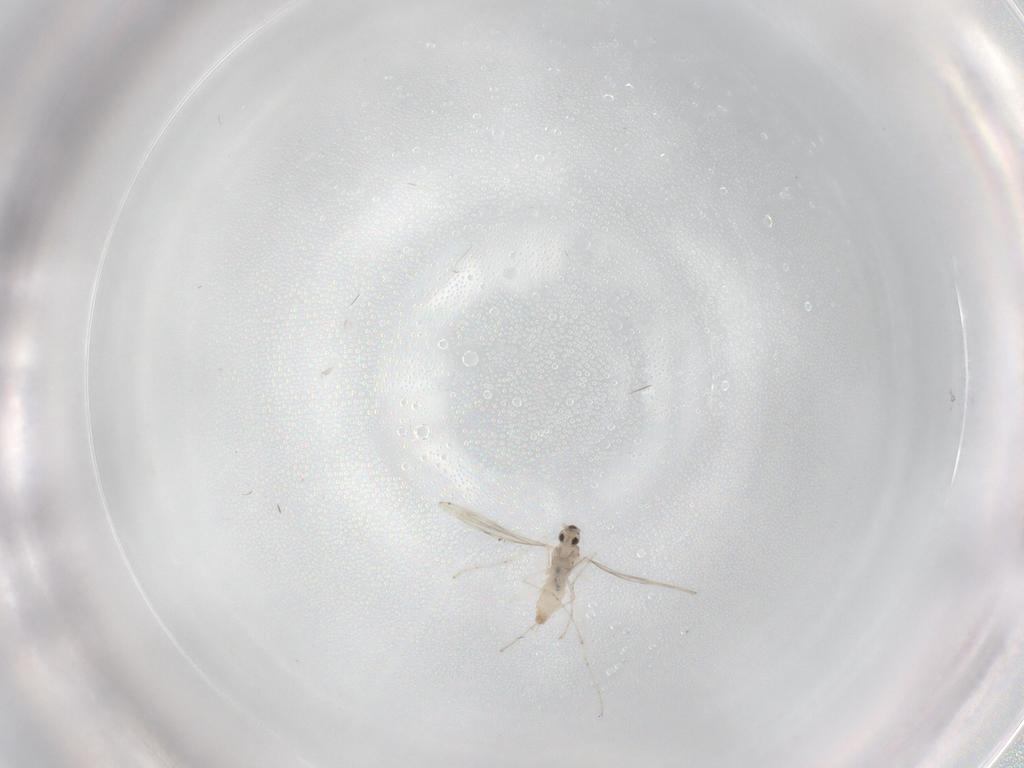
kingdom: Animalia
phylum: Arthropoda
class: Insecta
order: Diptera
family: Cecidomyiidae
